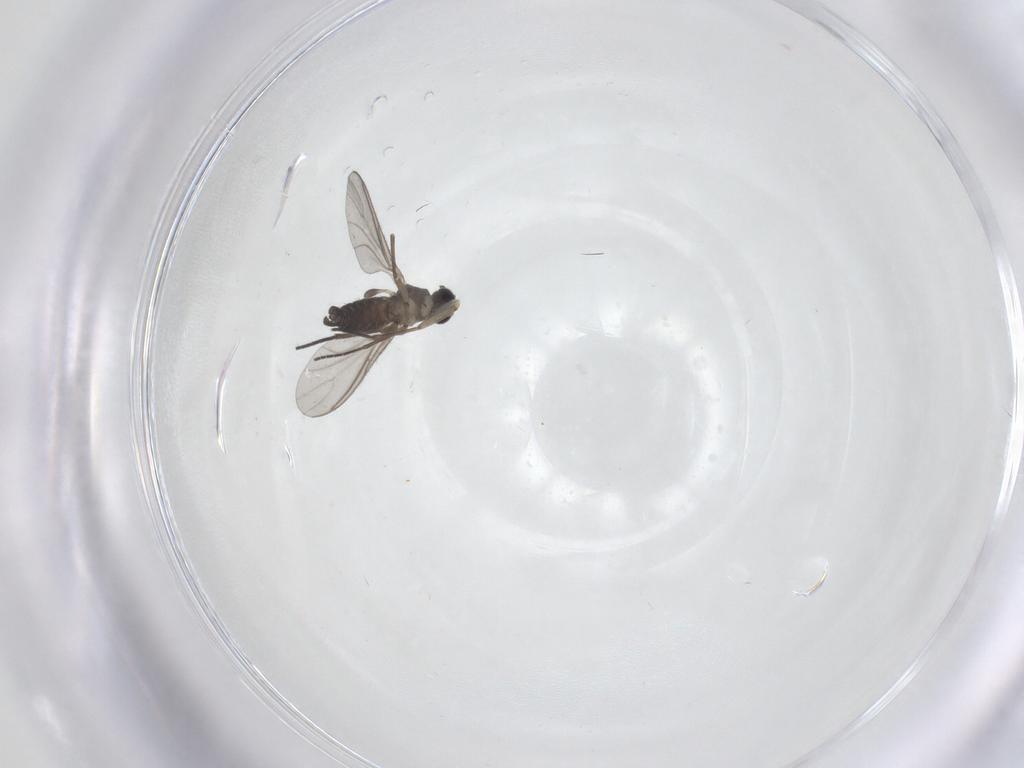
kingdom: Animalia
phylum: Arthropoda
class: Insecta
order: Diptera
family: Sciaridae
